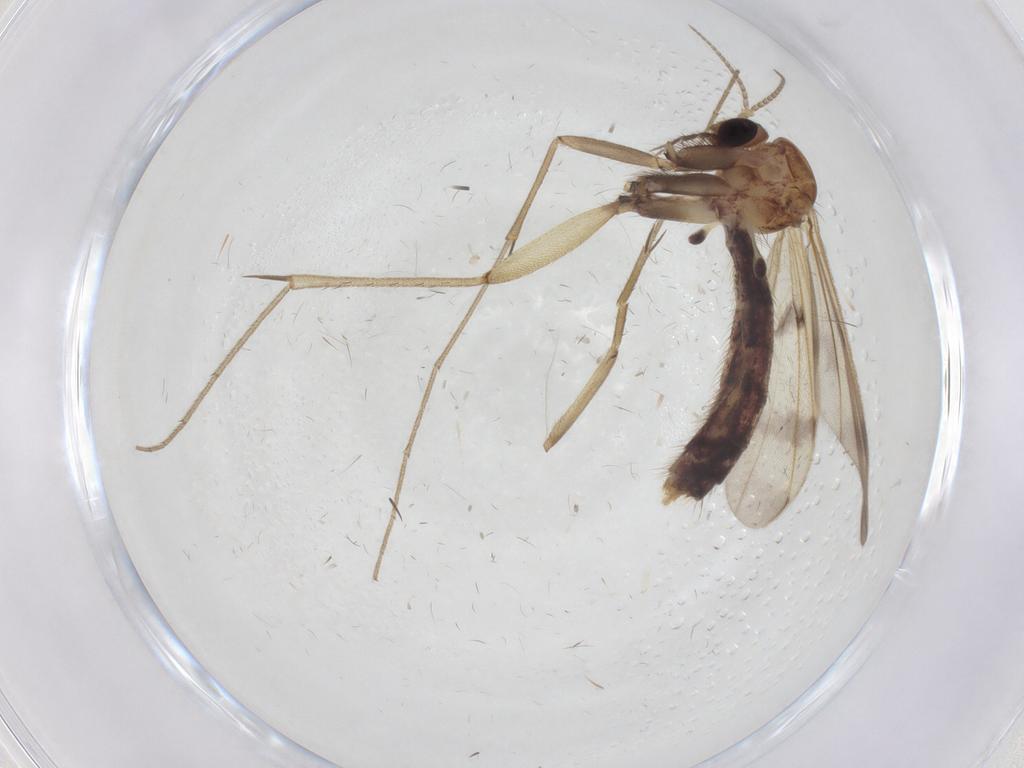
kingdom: Animalia
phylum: Arthropoda
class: Insecta
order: Diptera
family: Mycetophilidae
